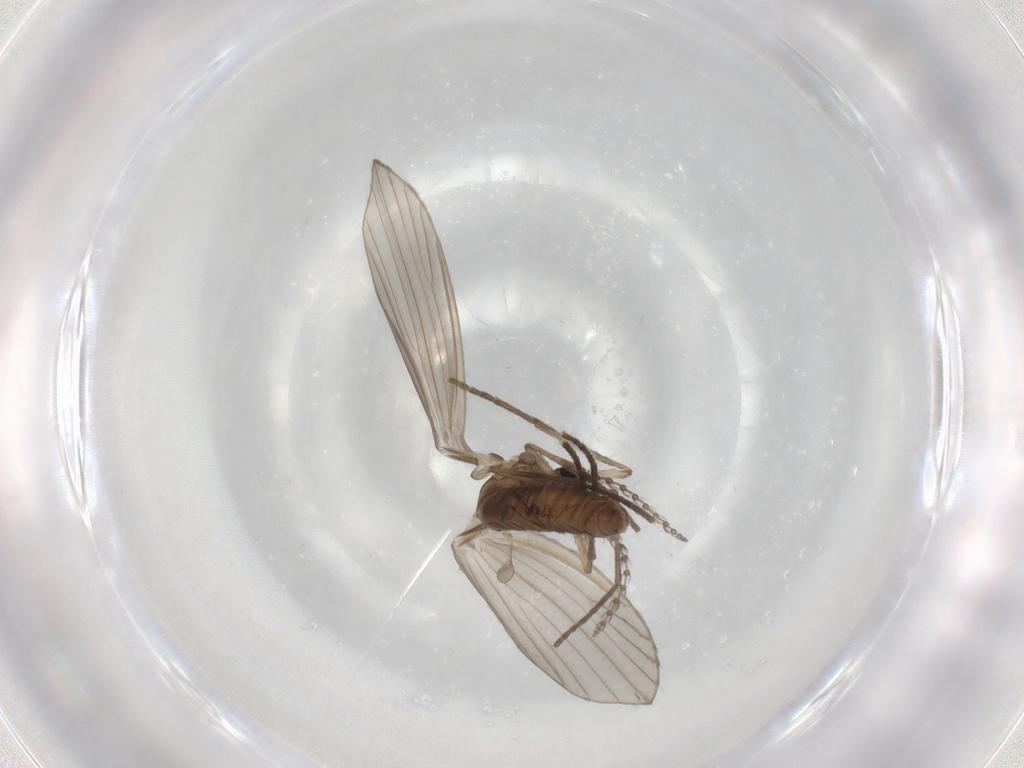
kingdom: Animalia
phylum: Arthropoda
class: Insecta
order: Diptera
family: Psychodidae
